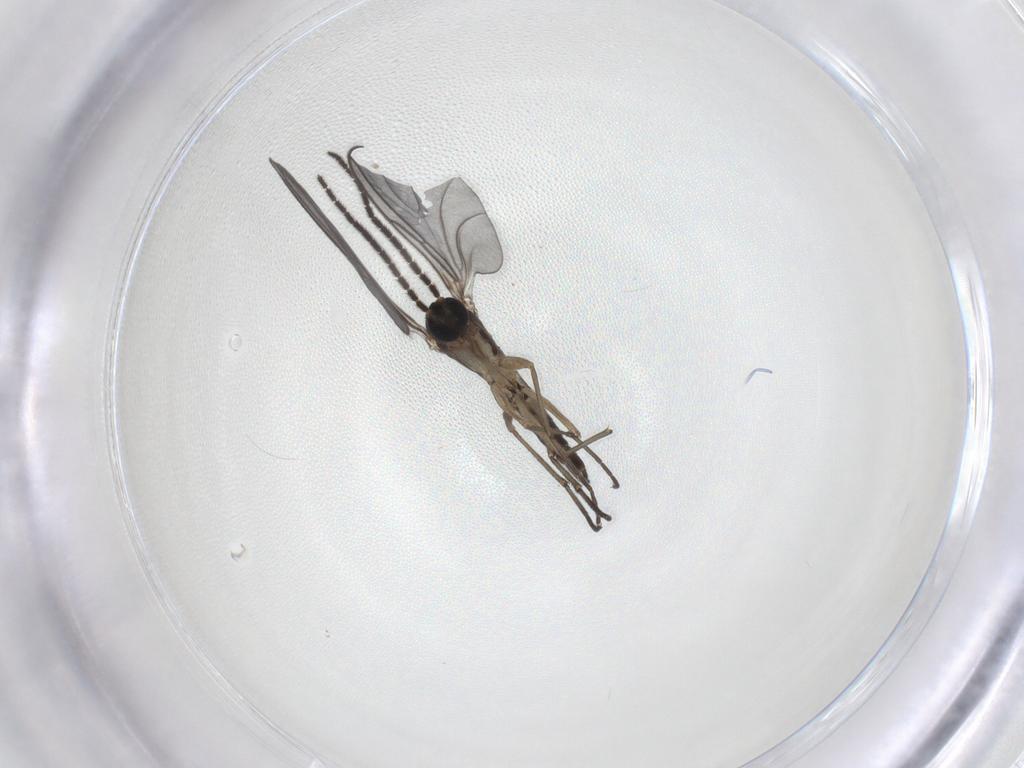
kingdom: Animalia
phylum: Arthropoda
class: Insecta
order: Diptera
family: Sciaridae
